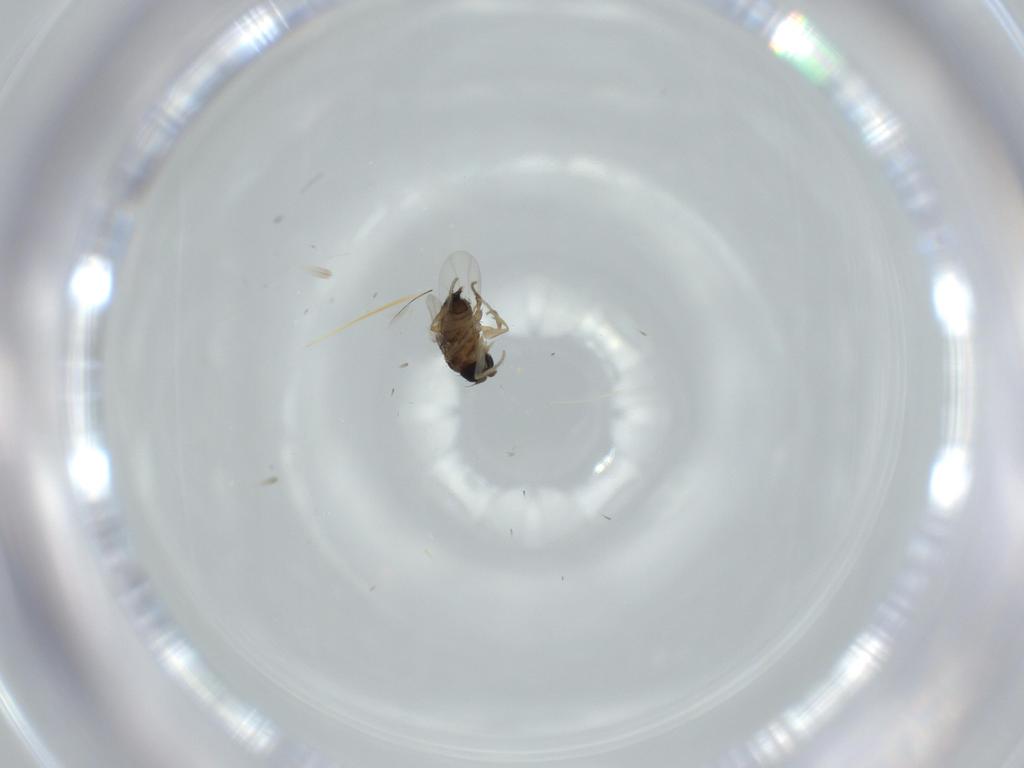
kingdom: Animalia
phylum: Arthropoda
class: Insecta
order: Diptera
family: Phoridae
